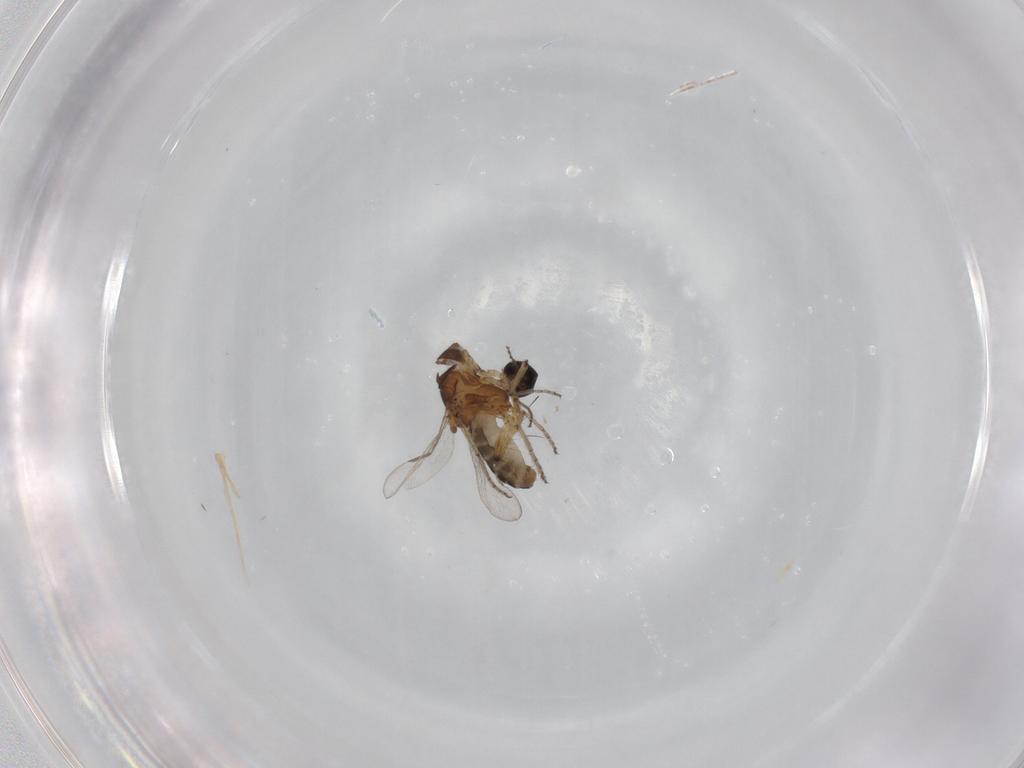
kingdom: Animalia
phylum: Arthropoda
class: Insecta
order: Diptera
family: Ceratopogonidae
